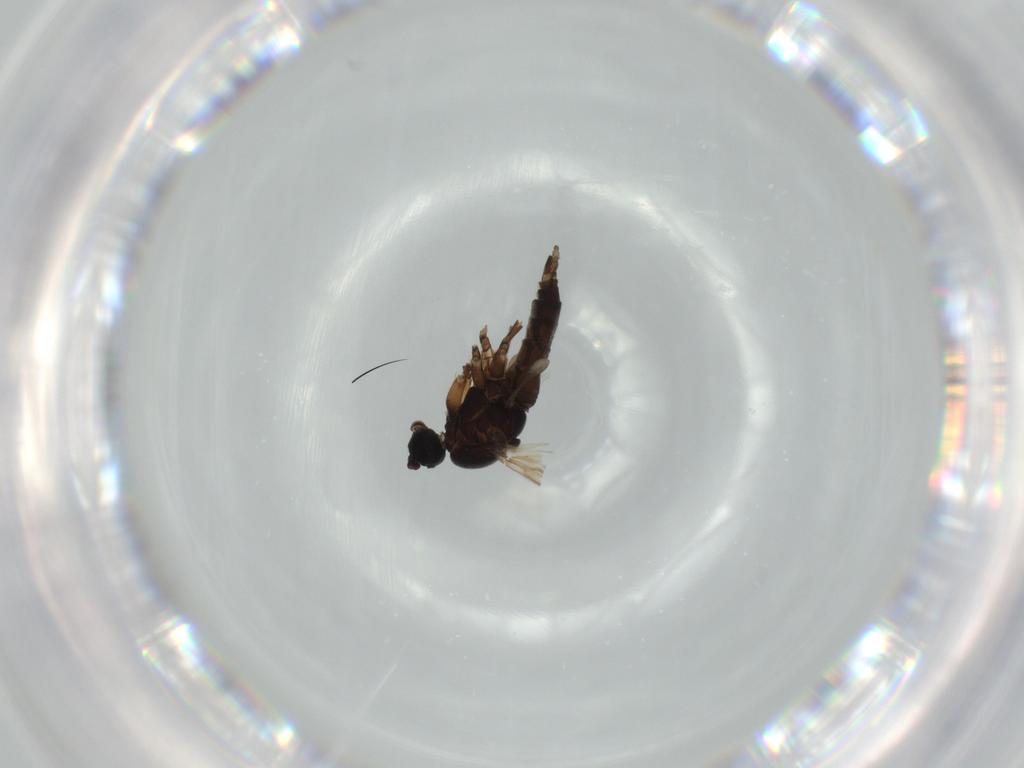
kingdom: Animalia
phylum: Arthropoda
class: Insecta
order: Diptera
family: Sciaridae
